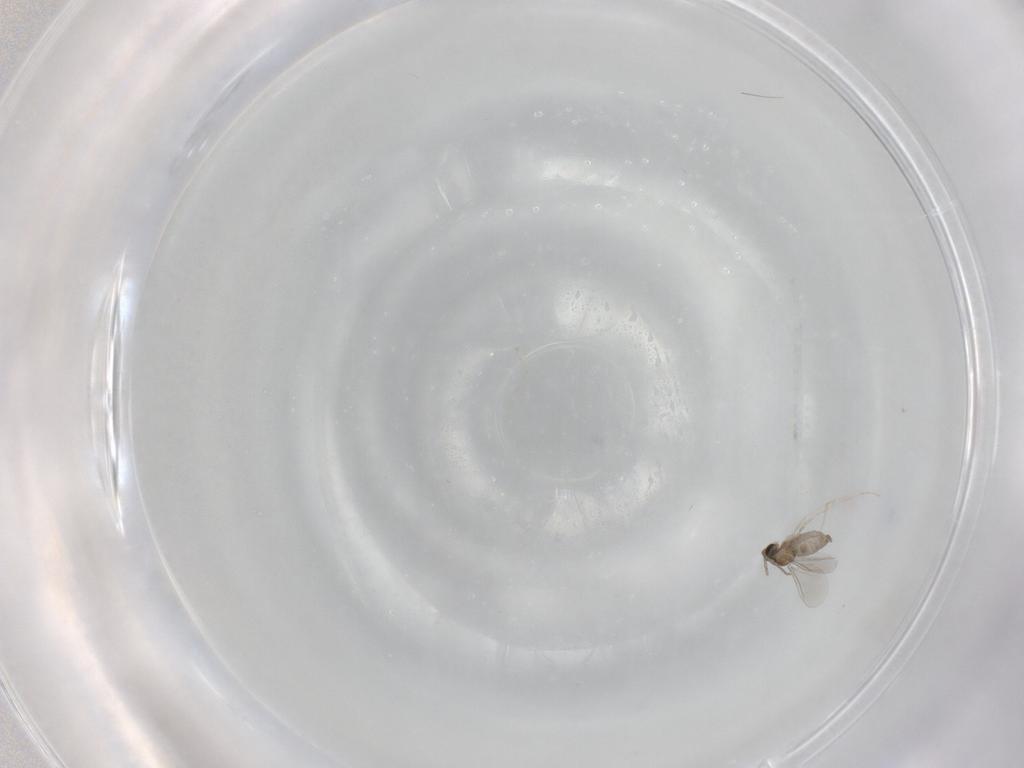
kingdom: Animalia
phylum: Arthropoda
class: Insecta
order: Diptera
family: Cecidomyiidae
